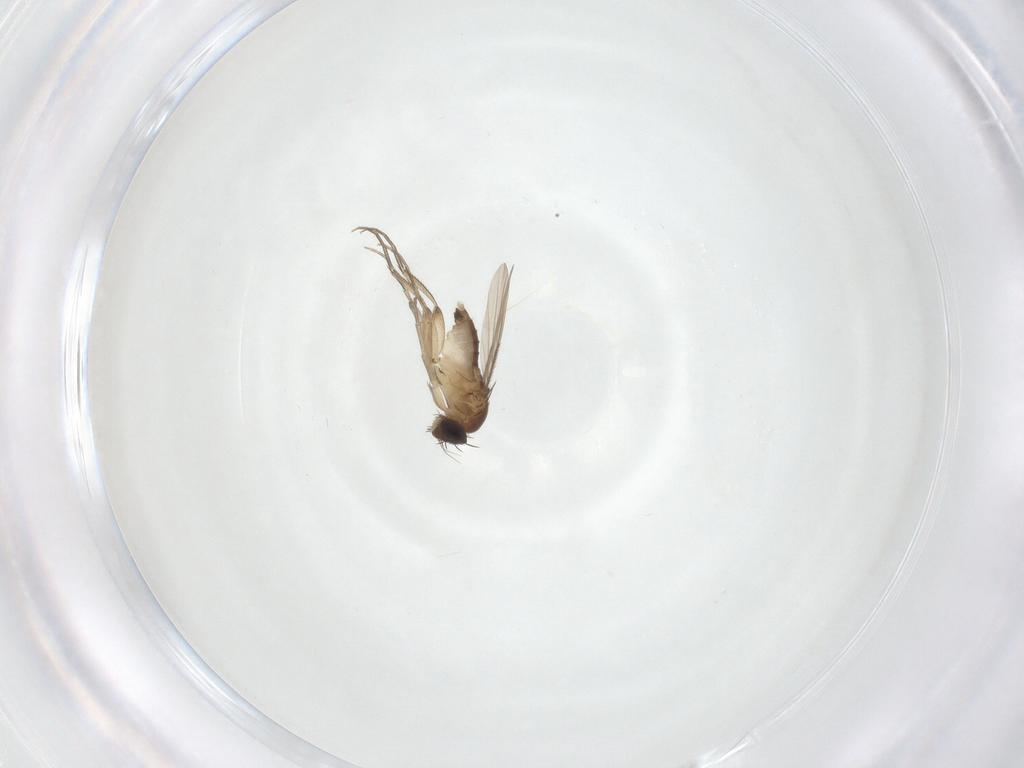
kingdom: Animalia
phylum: Arthropoda
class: Insecta
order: Diptera
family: Phoridae
